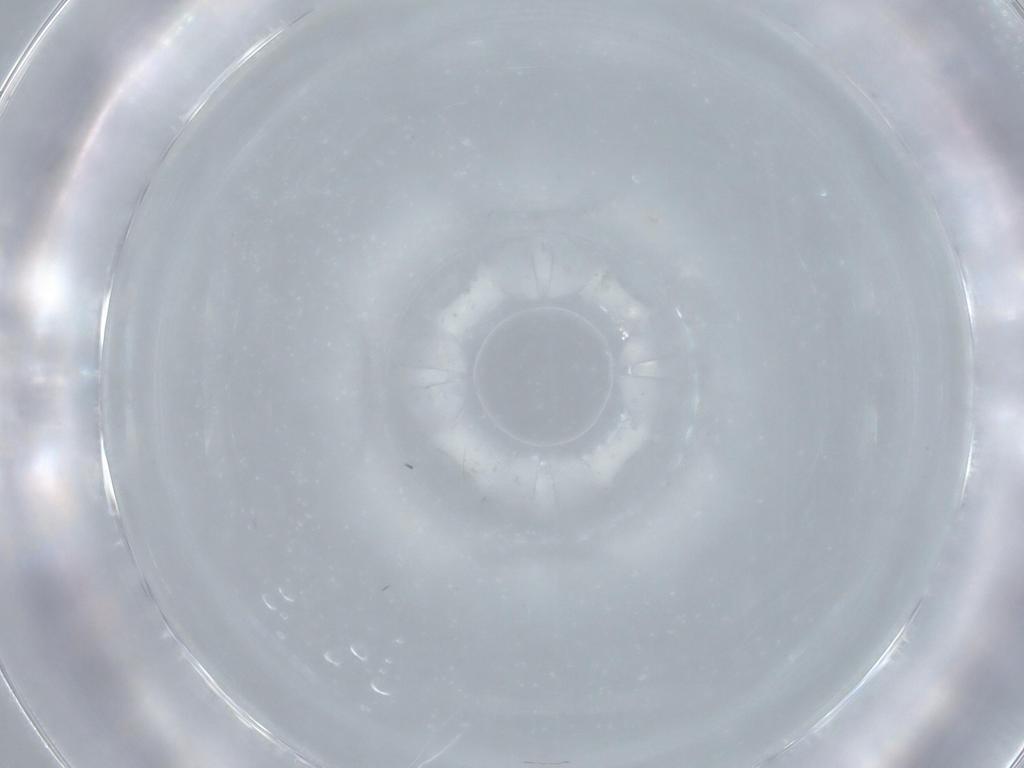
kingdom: Animalia
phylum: Arthropoda
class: Insecta
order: Diptera
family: Cecidomyiidae
